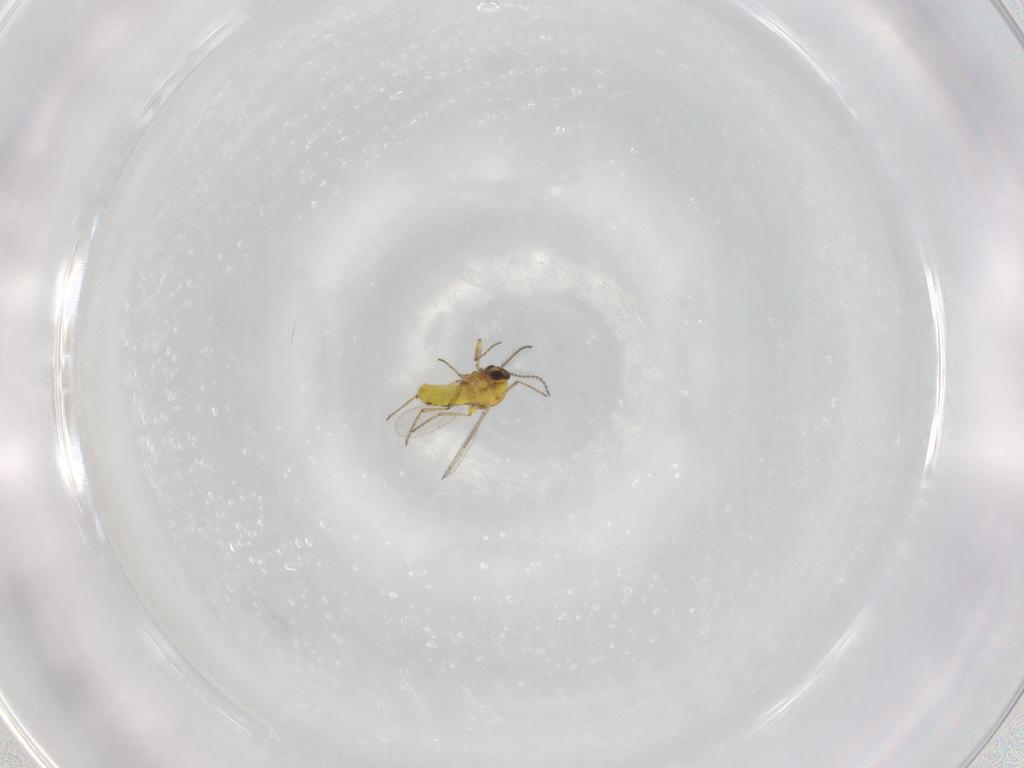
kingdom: Animalia
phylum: Arthropoda
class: Insecta
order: Diptera
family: Ceratopogonidae
